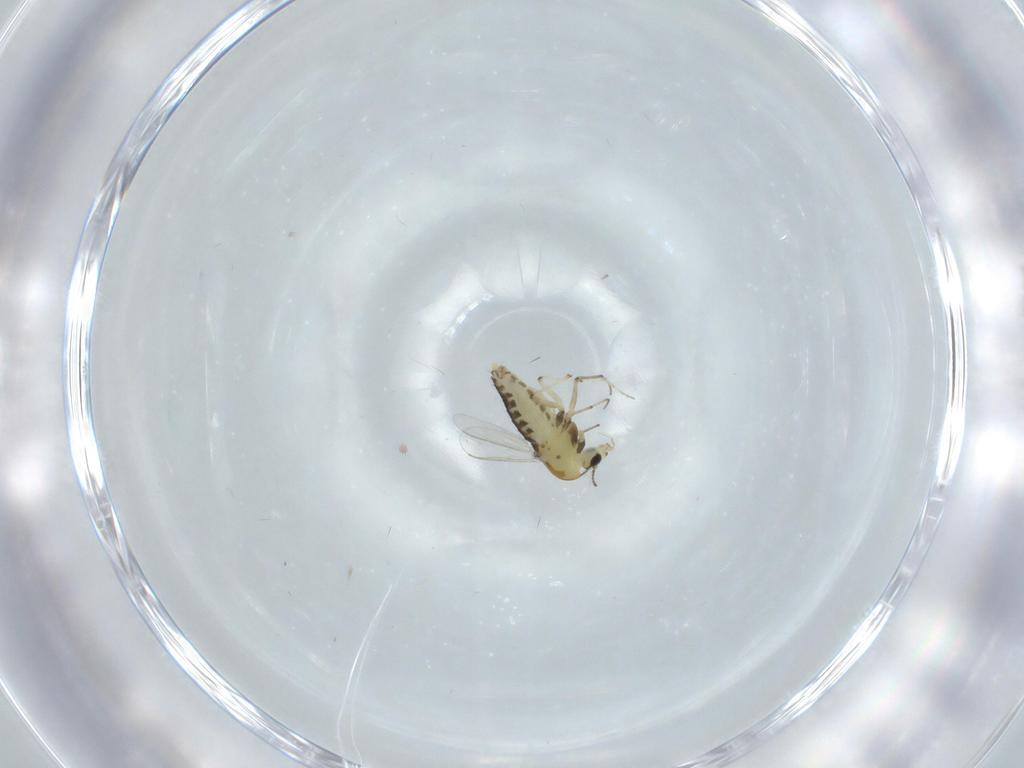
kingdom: Animalia
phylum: Arthropoda
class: Insecta
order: Diptera
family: Chironomidae
